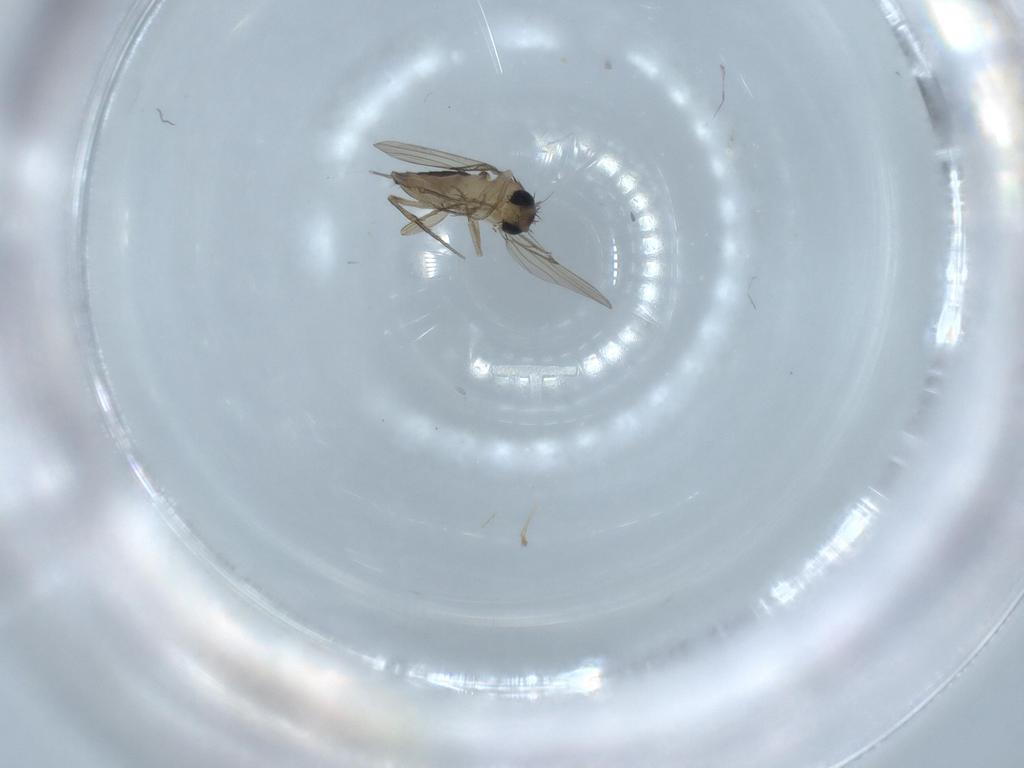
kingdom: Animalia
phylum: Arthropoda
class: Insecta
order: Diptera
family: Phoridae
